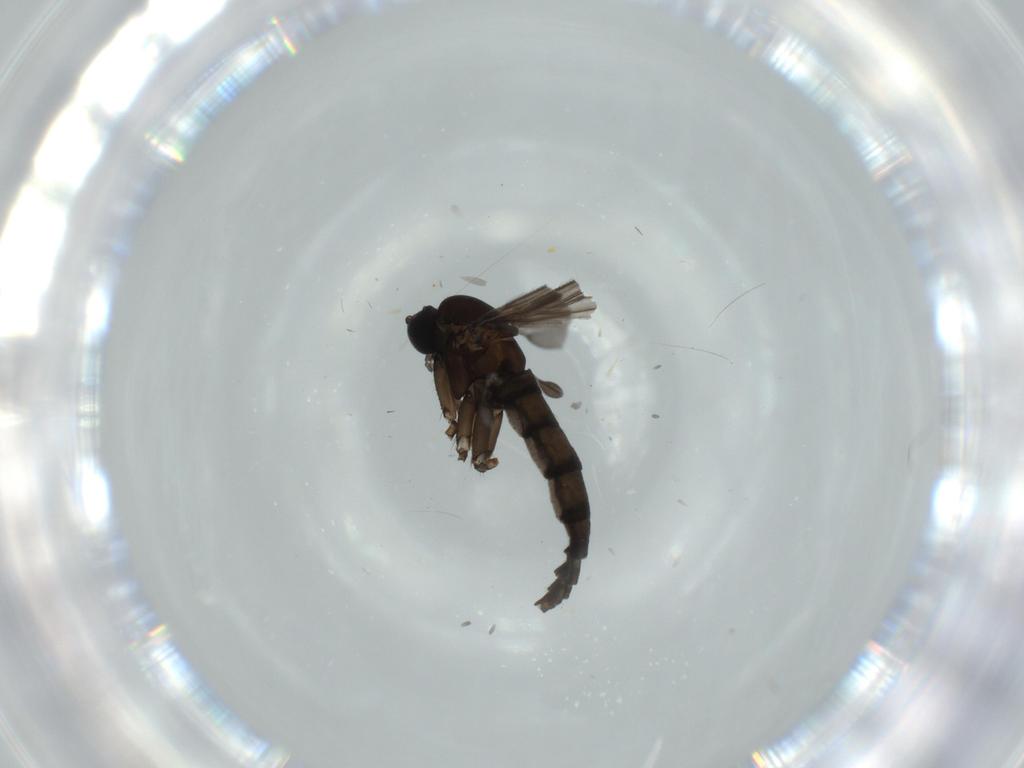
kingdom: Animalia
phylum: Arthropoda
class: Insecta
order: Diptera
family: Sciaridae
